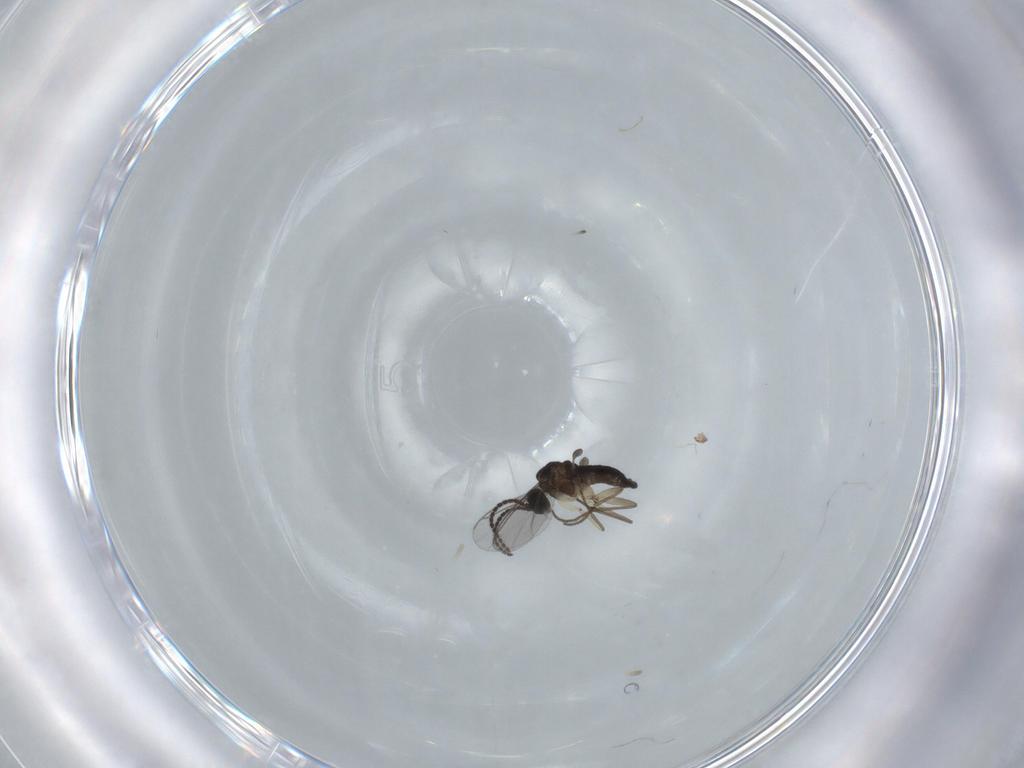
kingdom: Animalia
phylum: Arthropoda
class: Insecta
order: Diptera
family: Sciaridae
